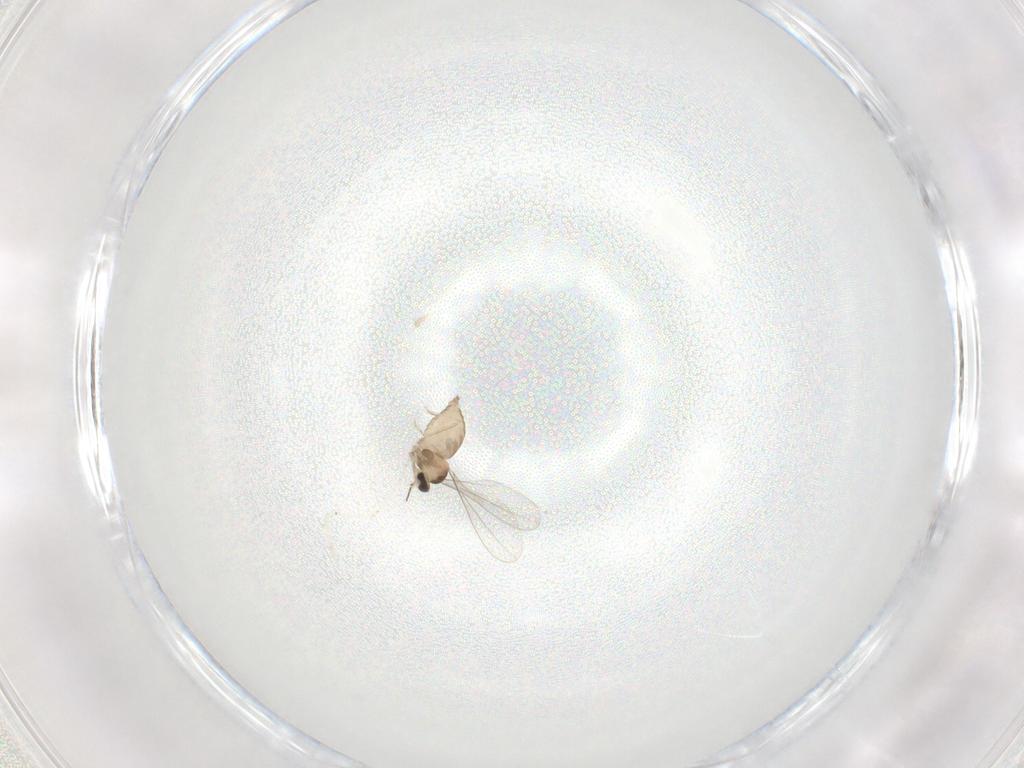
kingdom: Animalia
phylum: Arthropoda
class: Insecta
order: Diptera
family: Cecidomyiidae
